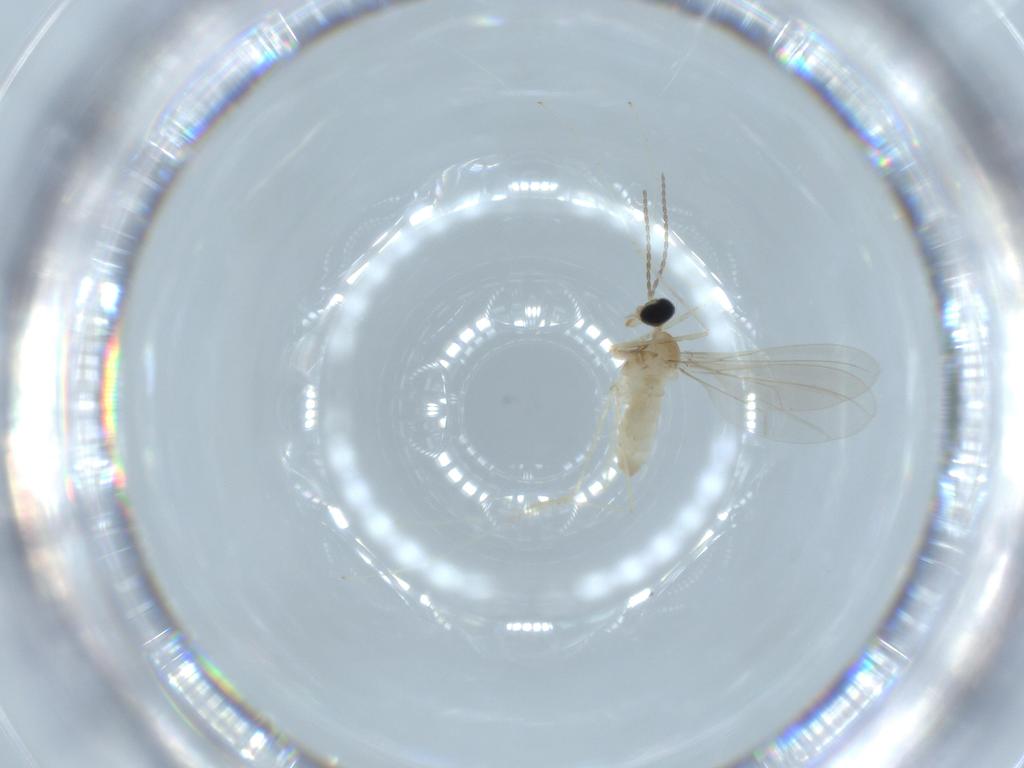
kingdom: Animalia
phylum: Arthropoda
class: Insecta
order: Diptera
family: Cecidomyiidae
